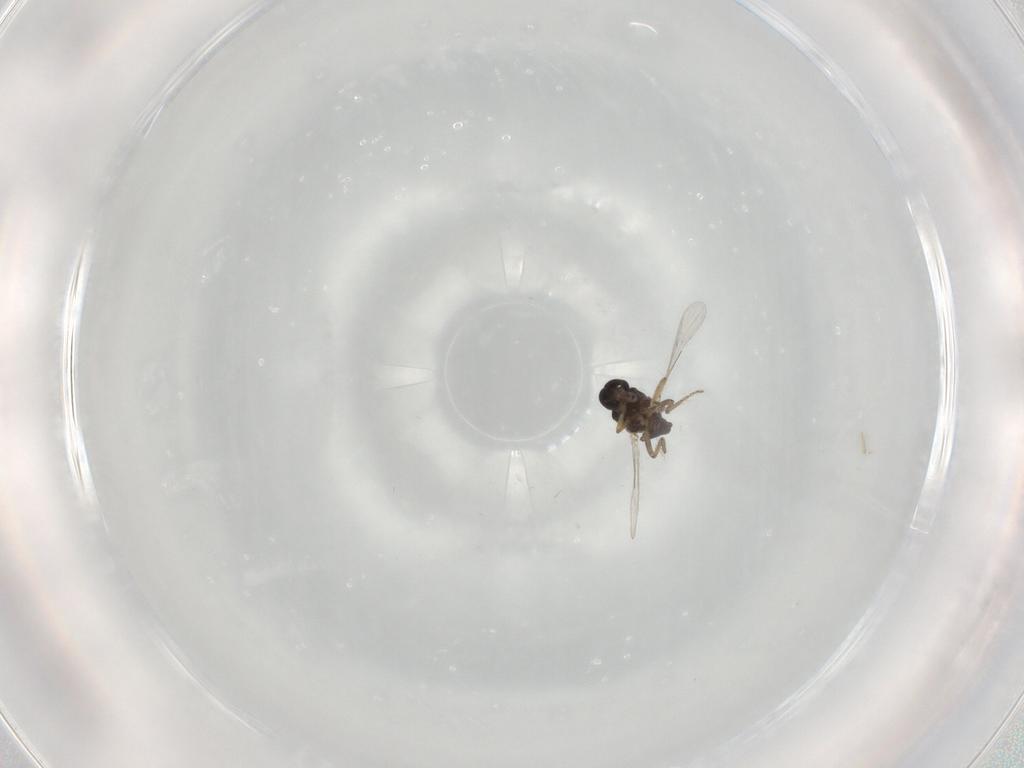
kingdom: Animalia
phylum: Arthropoda
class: Insecta
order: Diptera
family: Ceratopogonidae
